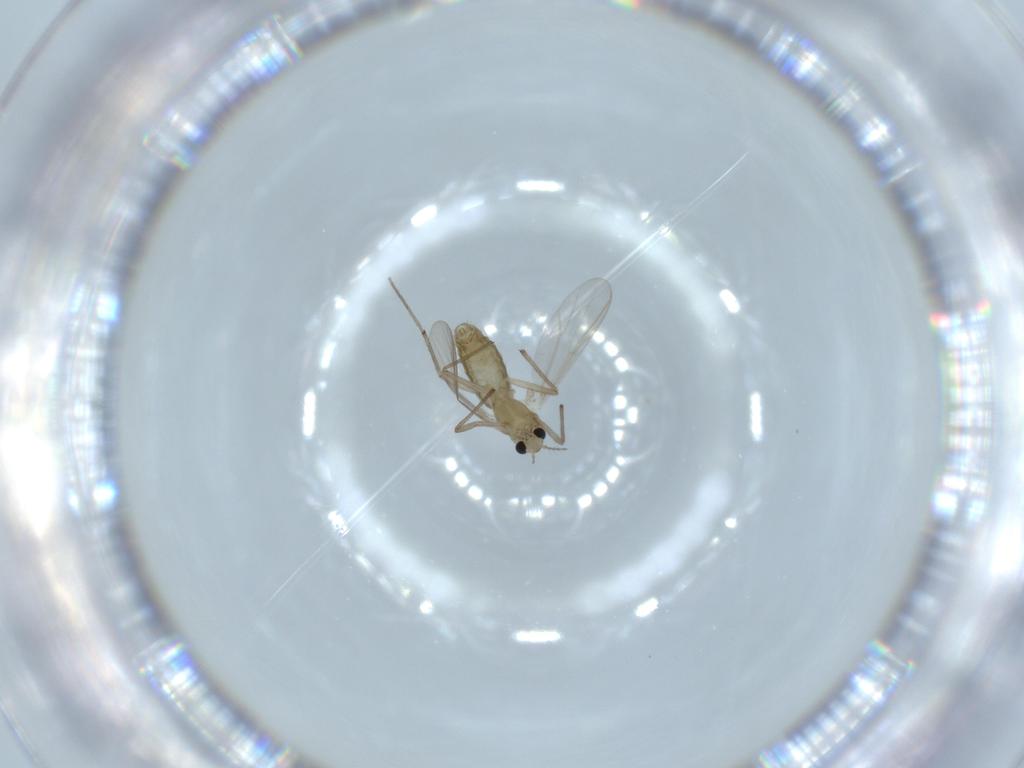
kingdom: Animalia
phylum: Arthropoda
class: Insecta
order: Diptera
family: Chironomidae
